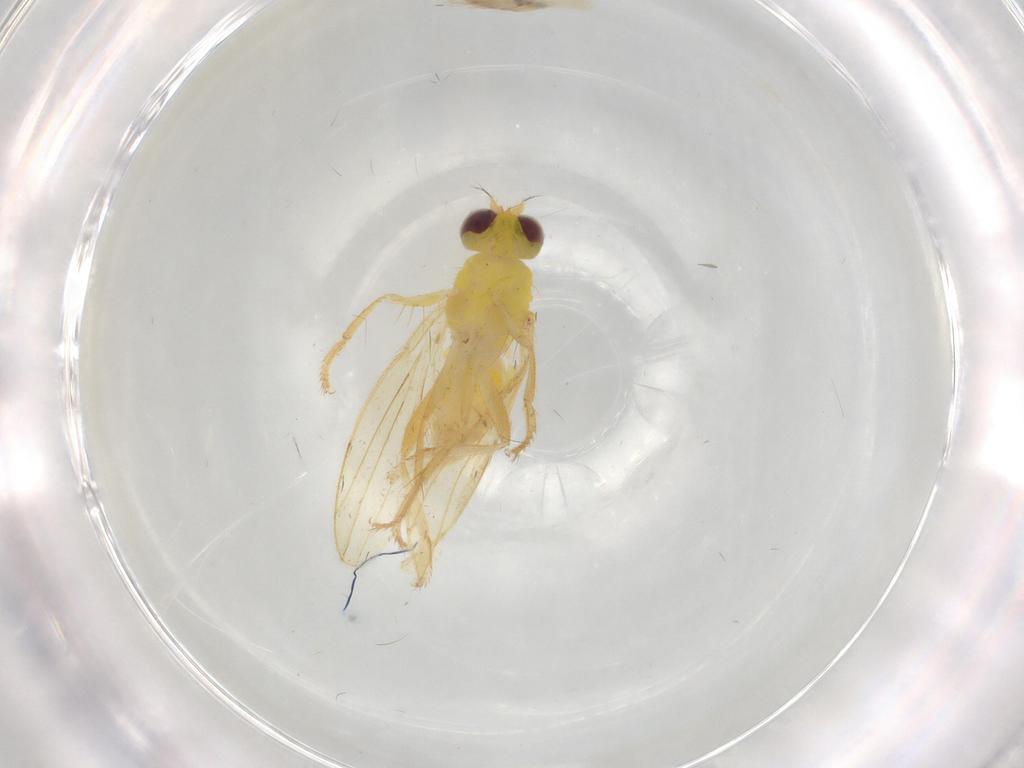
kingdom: Animalia
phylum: Arthropoda
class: Insecta
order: Diptera
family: Periscelididae
